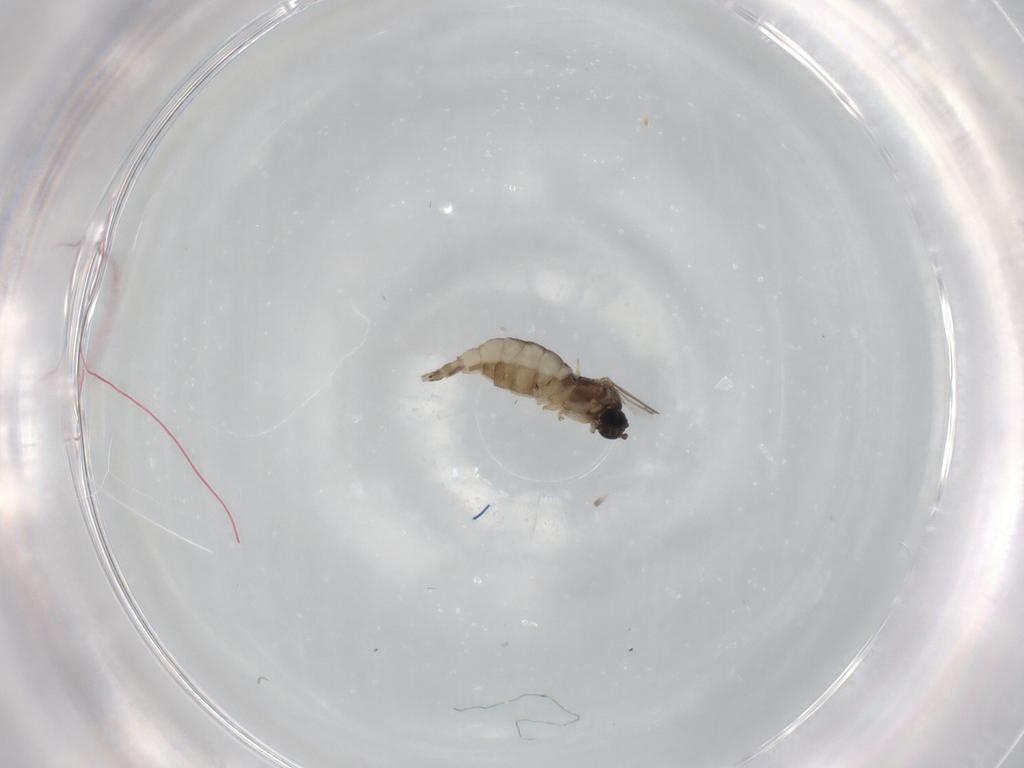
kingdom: Animalia
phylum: Arthropoda
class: Insecta
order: Diptera
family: Sciaridae
